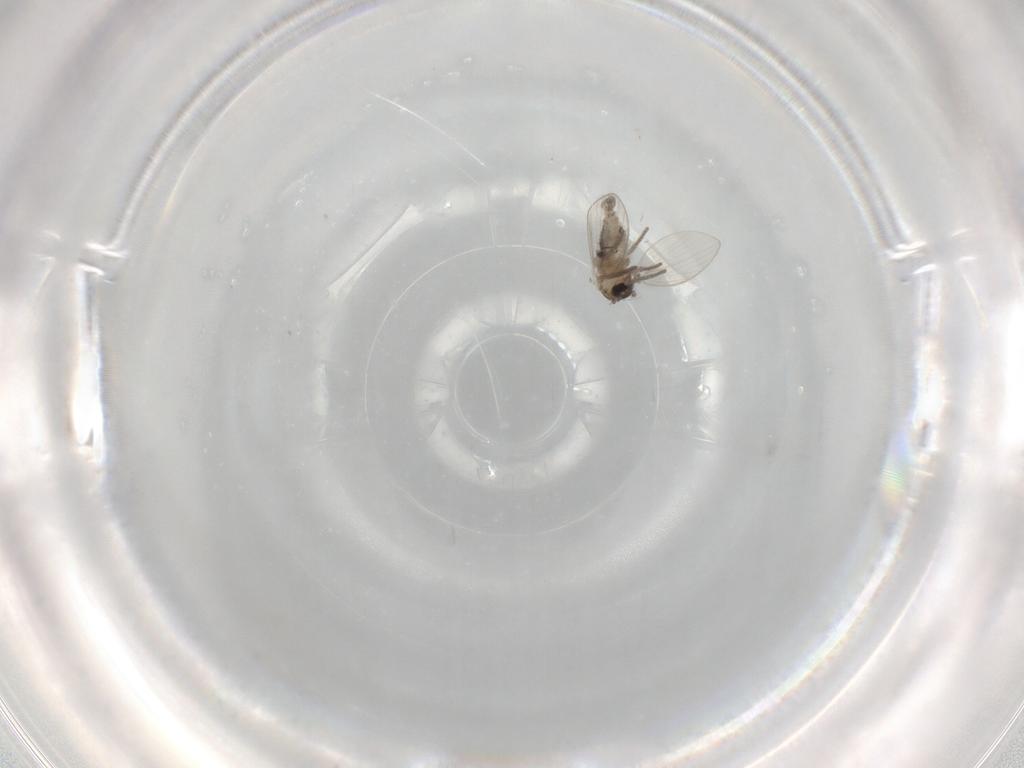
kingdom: Animalia
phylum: Arthropoda
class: Insecta
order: Diptera
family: Psychodidae
